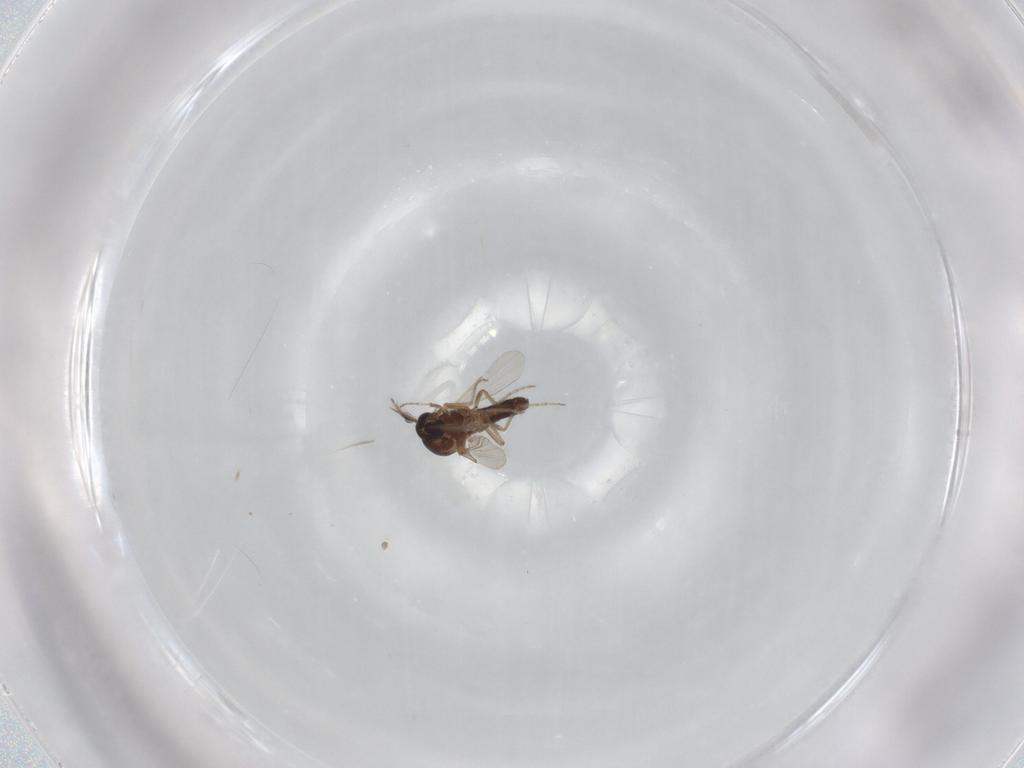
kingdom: Animalia
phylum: Arthropoda
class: Insecta
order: Diptera
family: Ceratopogonidae
